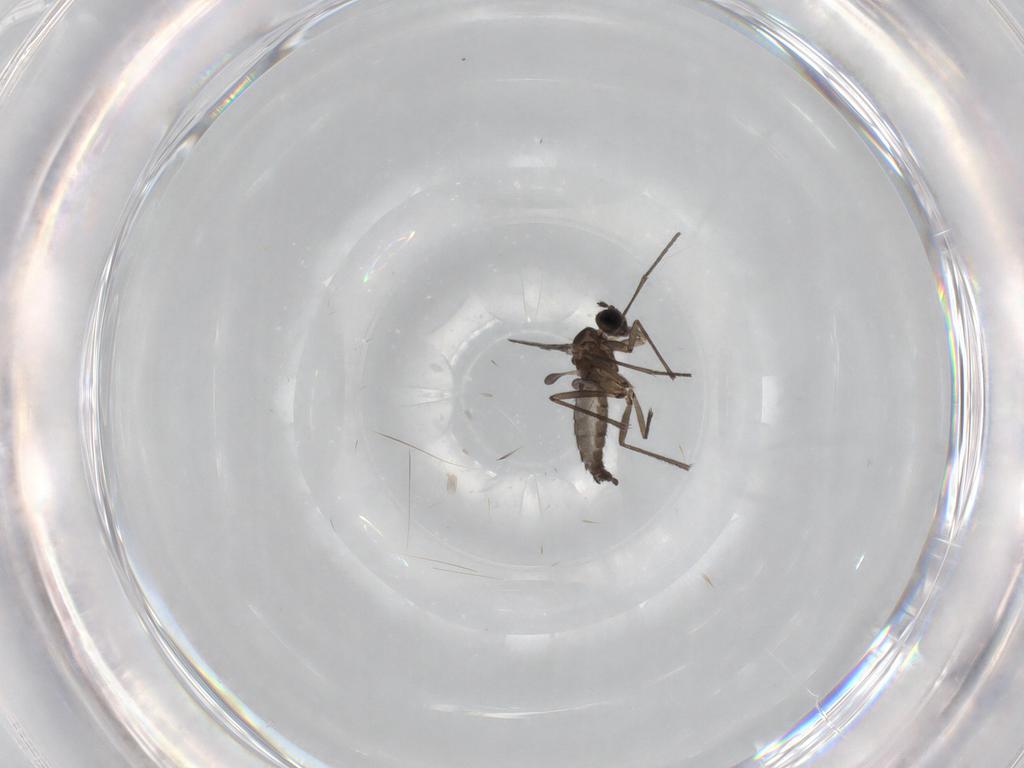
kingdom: Animalia
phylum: Arthropoda
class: Insecta
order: Diptera
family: Sciaridae
